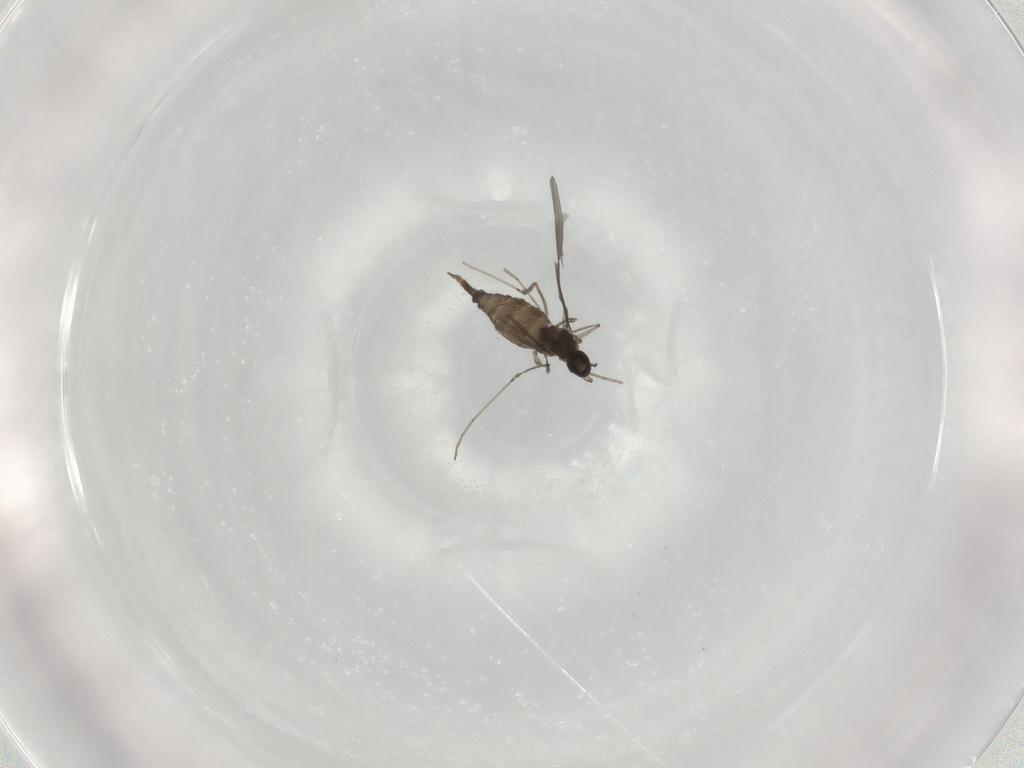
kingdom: Animalia
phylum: Arthropoda
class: Insecta
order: Diptera
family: Cecidomyiidae
